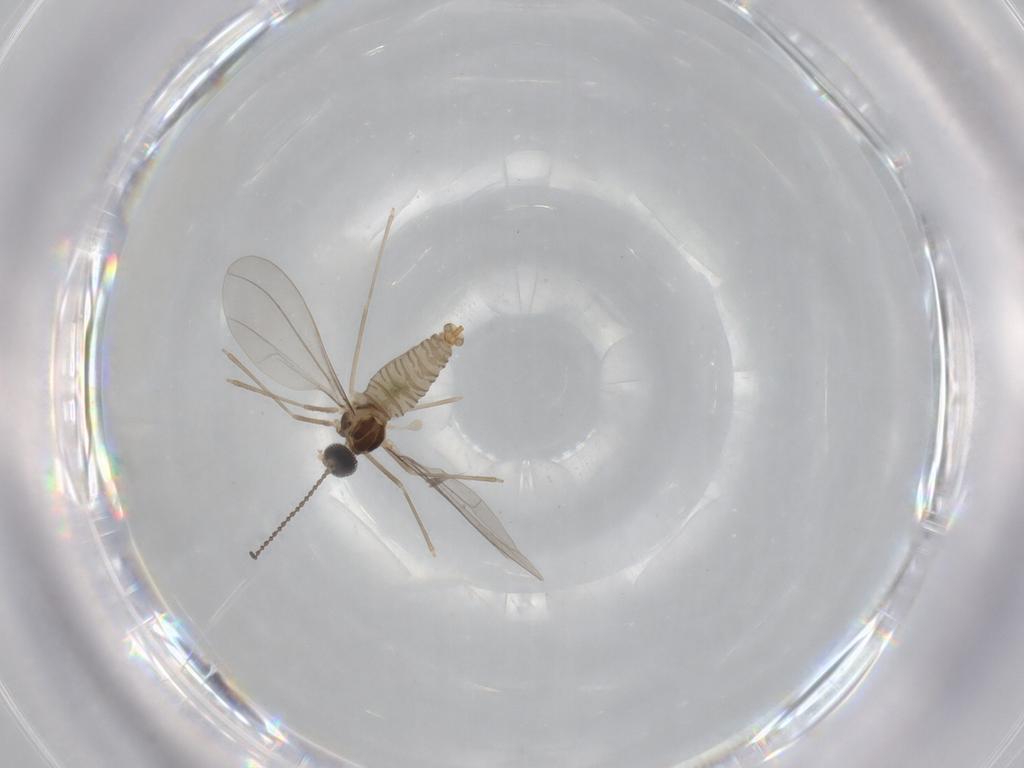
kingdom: Animalia
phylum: Arthropoda
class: Insecta
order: Diptera
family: Cecidomyiidae
